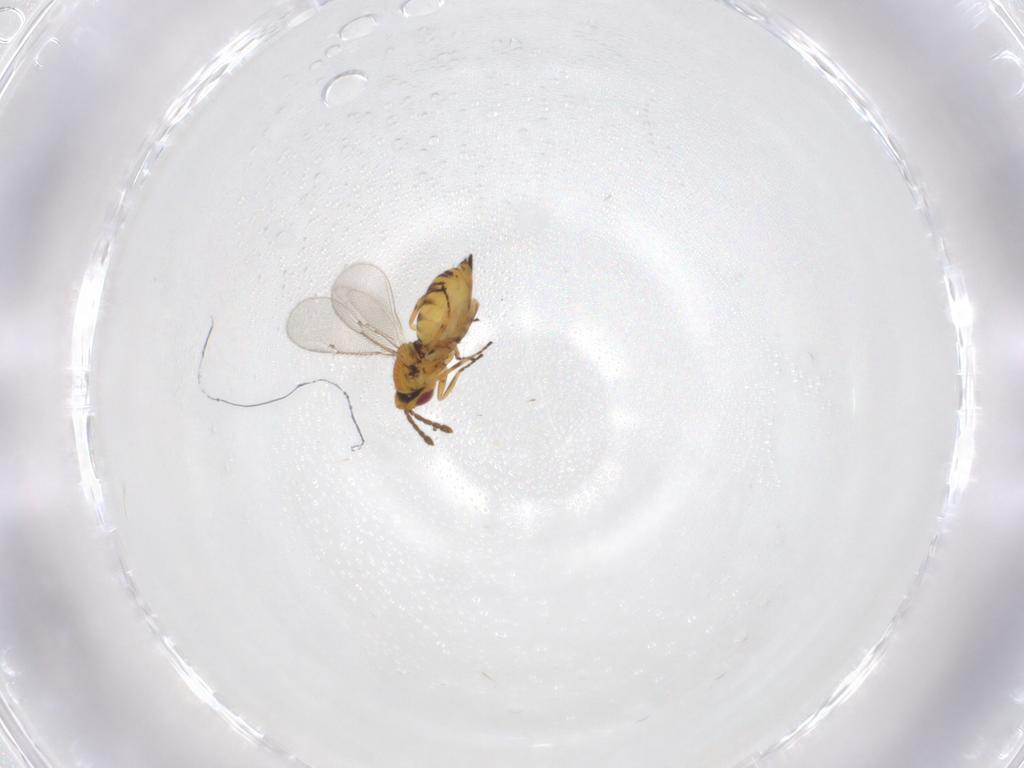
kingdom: Animalia
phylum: Arthropoda
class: Insecta
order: Hymenoptera
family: Eulophidae
